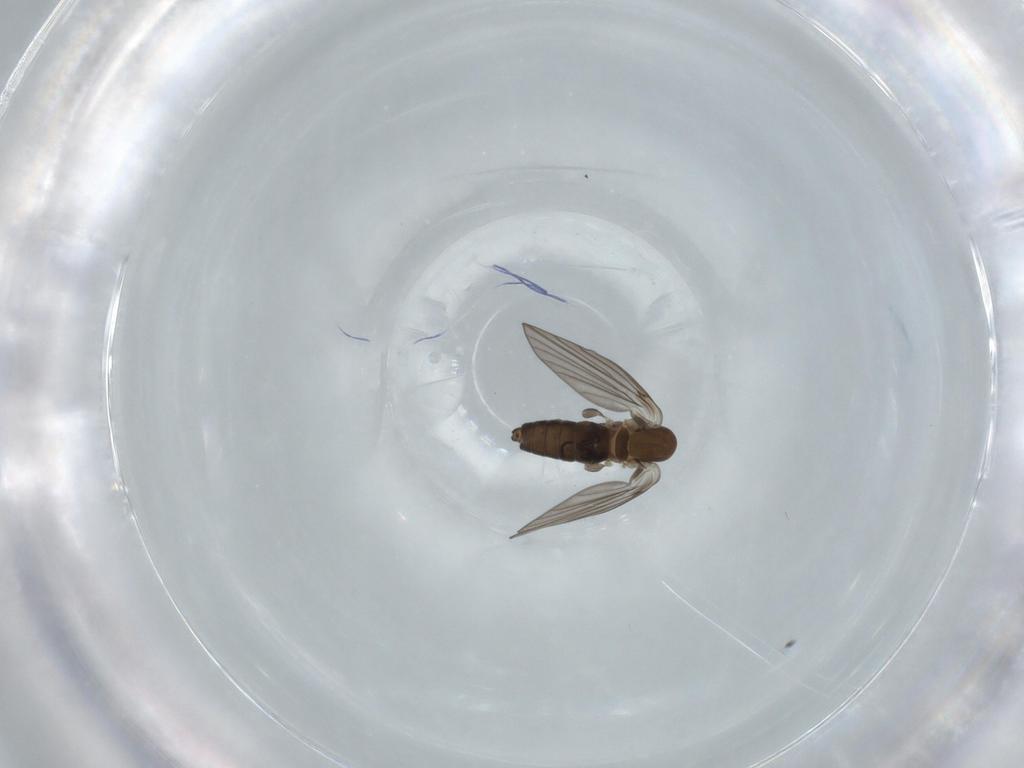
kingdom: Animalia
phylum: Arthropoda
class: Insecta
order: Diptera
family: Psychodidae
